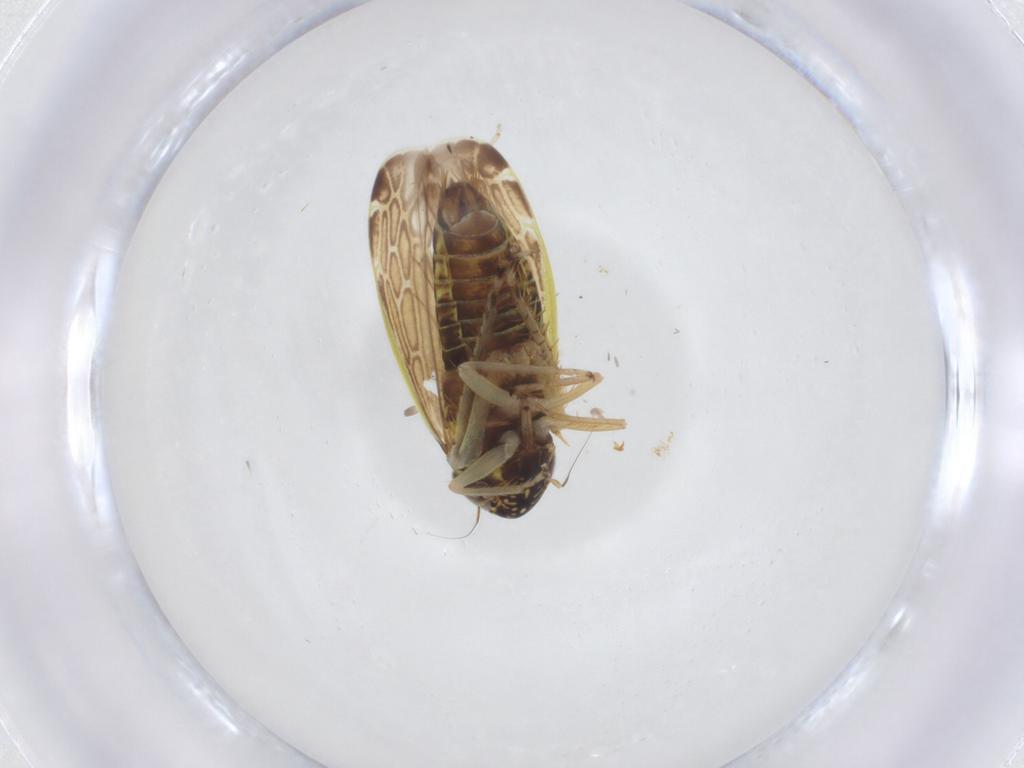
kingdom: Animalia
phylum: Arthropoda
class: Insecta
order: Hemiptera
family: Cicadellidae
